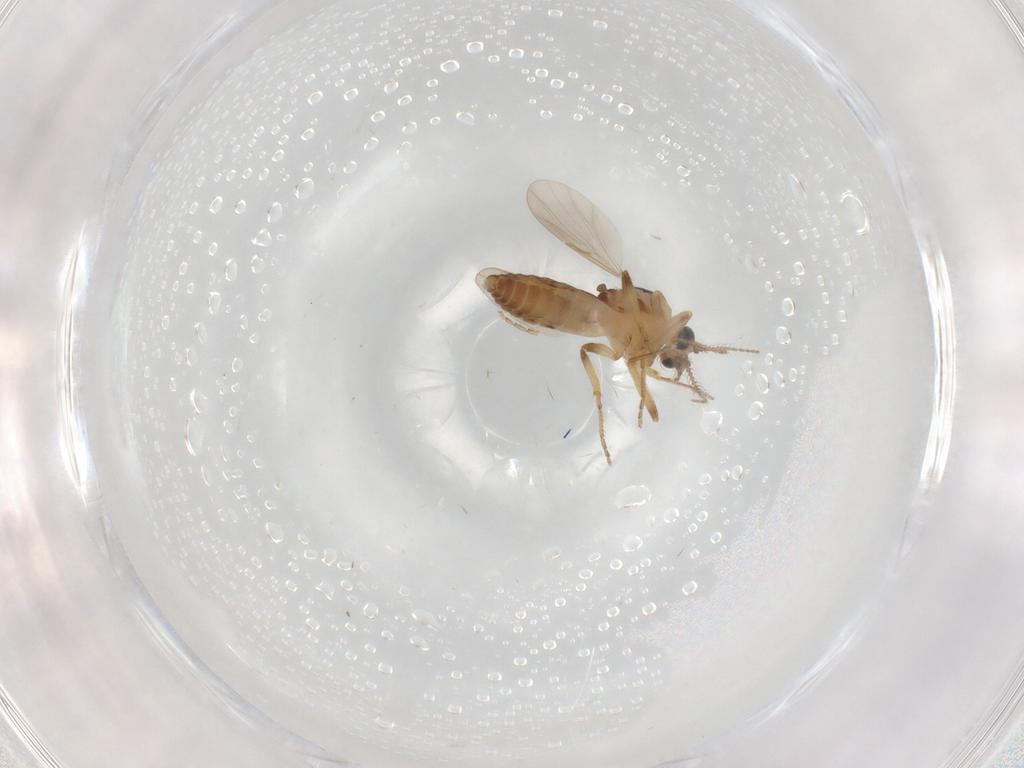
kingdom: Animalia
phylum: Arthropoda
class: Insecta
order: Diptera
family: Ceratopogonidae
